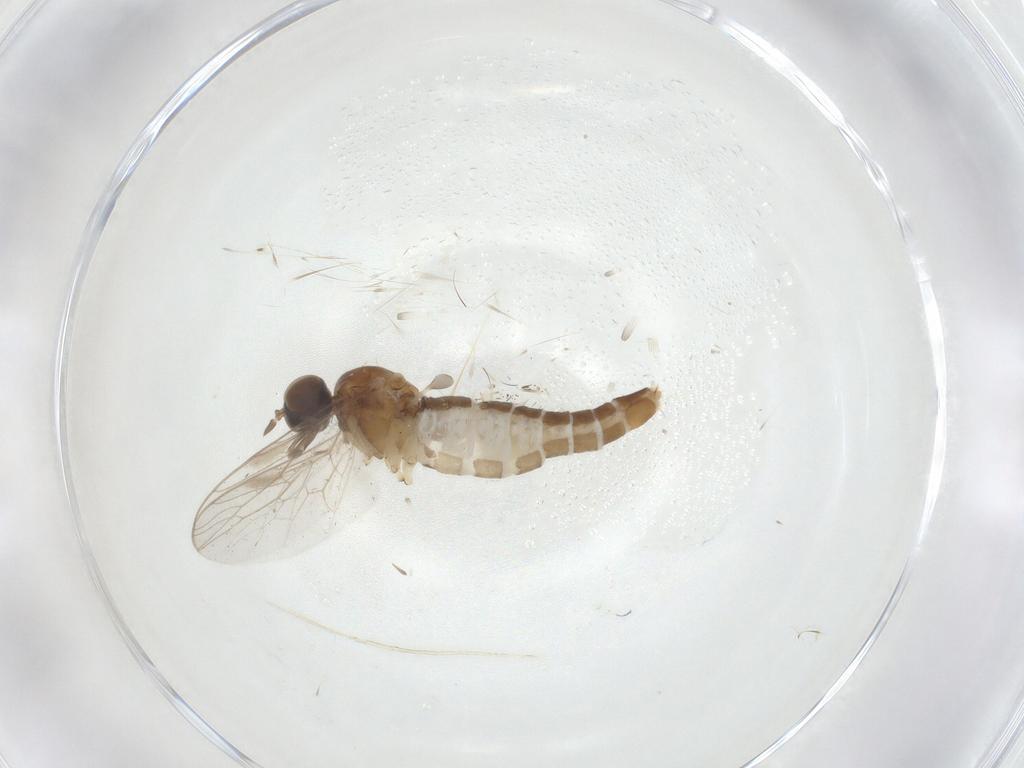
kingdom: Animalia
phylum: Arthropoda
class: Insecta
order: Diptera
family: Scenopinidae
